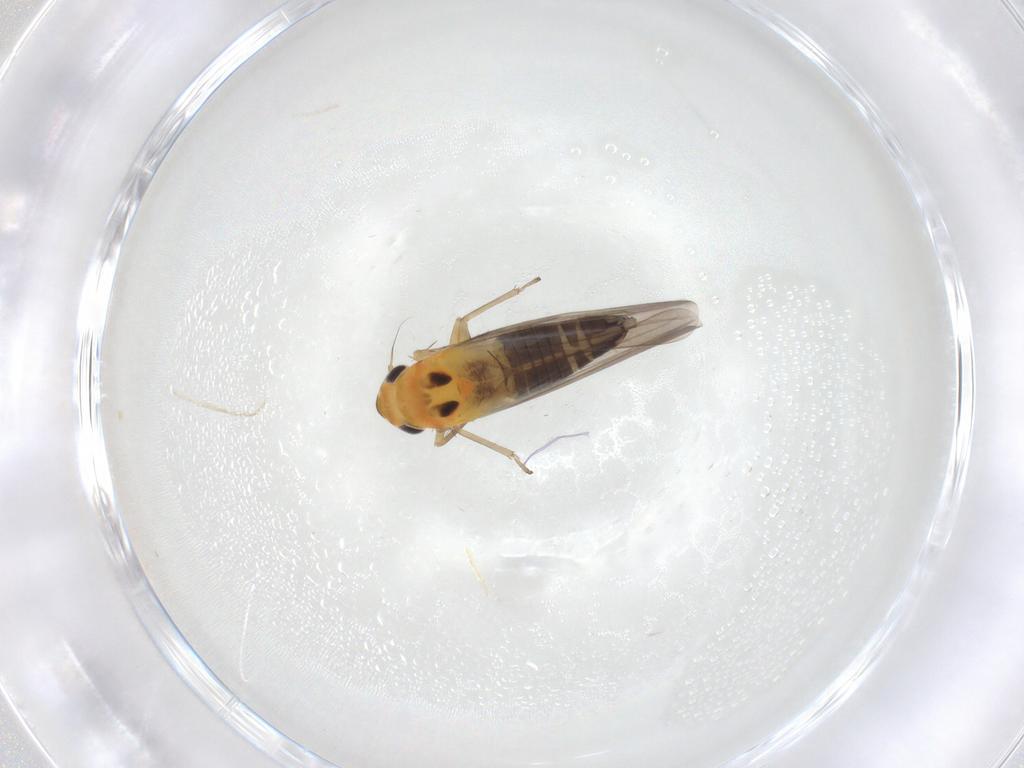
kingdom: Animalia
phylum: Arthropoda
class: Insecta
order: Hemiptera
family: Cicadellidae
